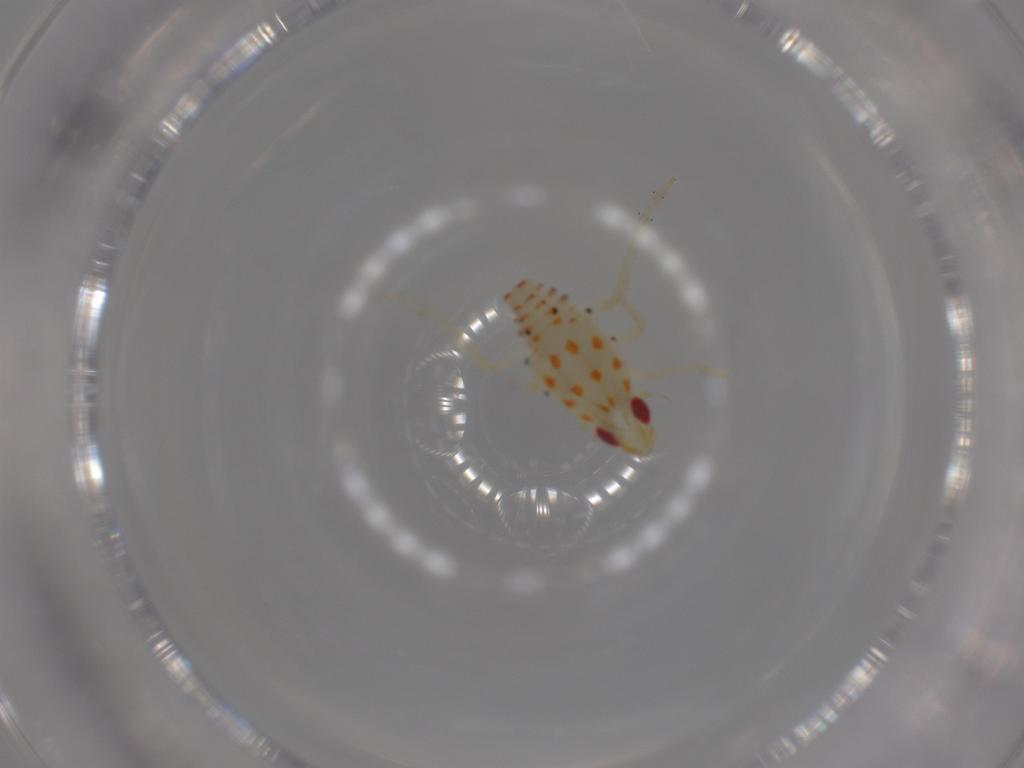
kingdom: Animalia
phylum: Arthropoda
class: Insecta
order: Hemiptera
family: Tropiduchidae
